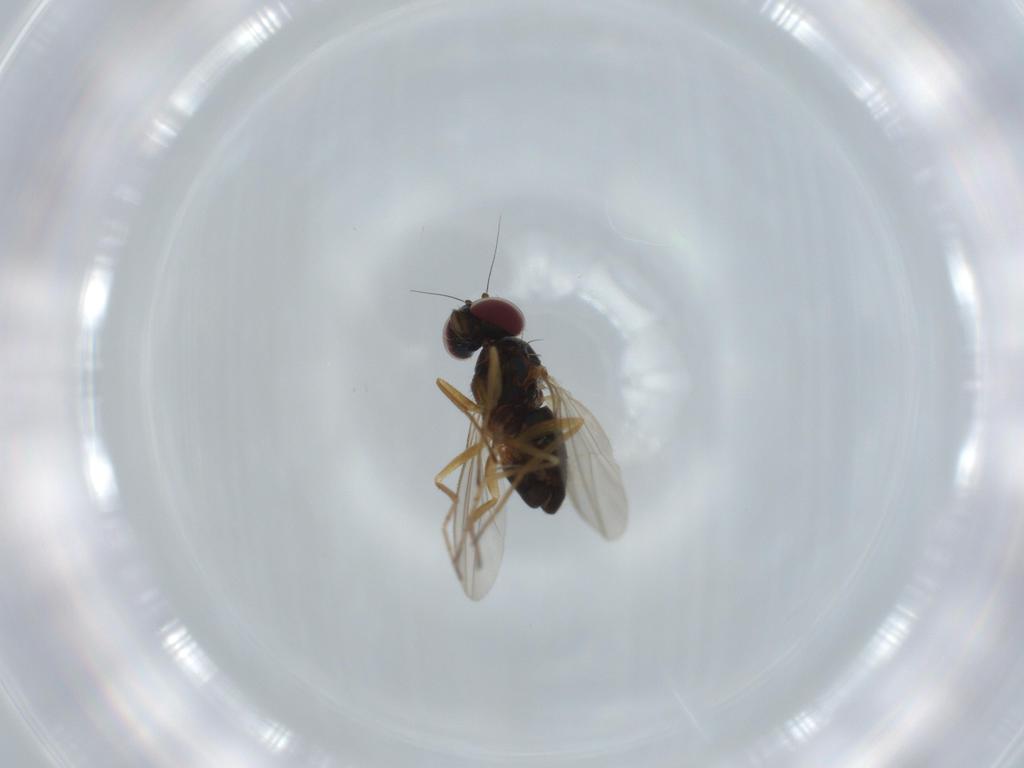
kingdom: Animalia
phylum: Arthropoda
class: Insecta
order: Diptera
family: Dolichopodidae
